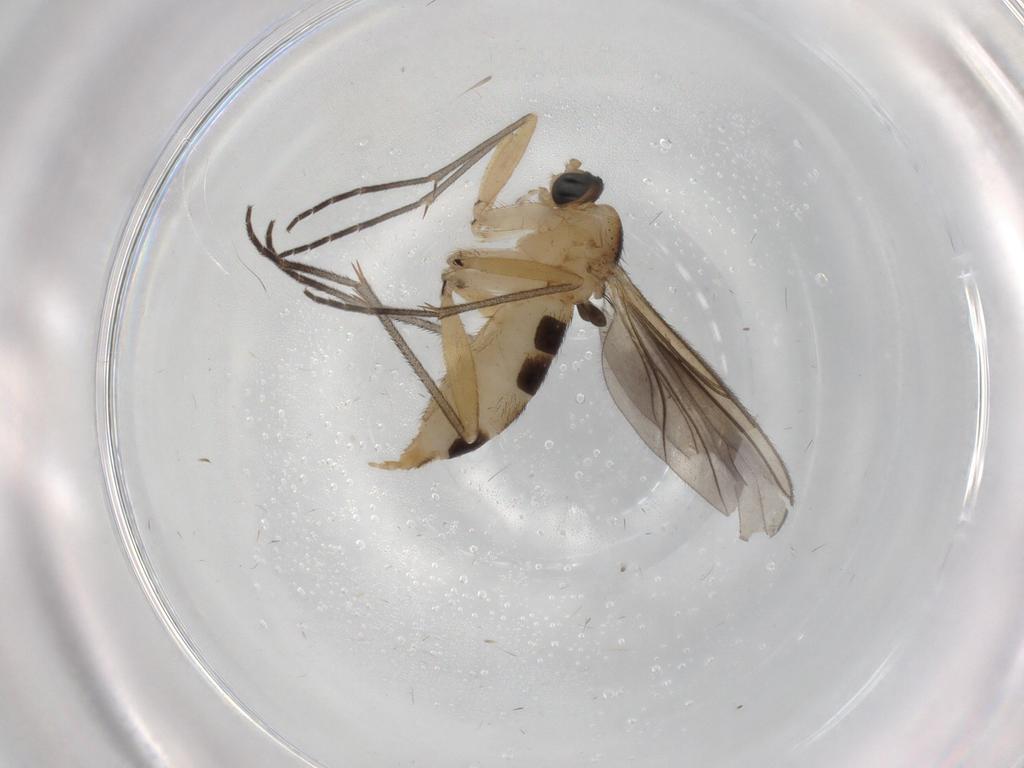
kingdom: Animalia
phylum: Arthropoda
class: Insecta
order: Diptera
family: Sciaridae
